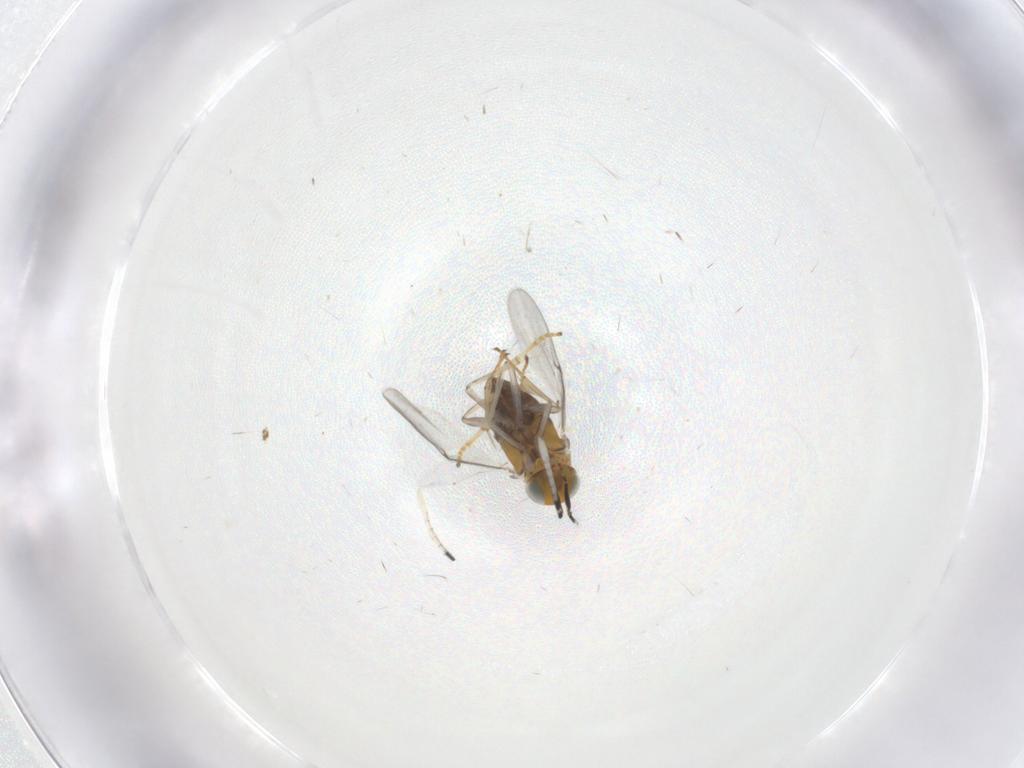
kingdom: Animalia
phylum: Arthropoda
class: Insecta
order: Hymenoptera
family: Encyrtidae
